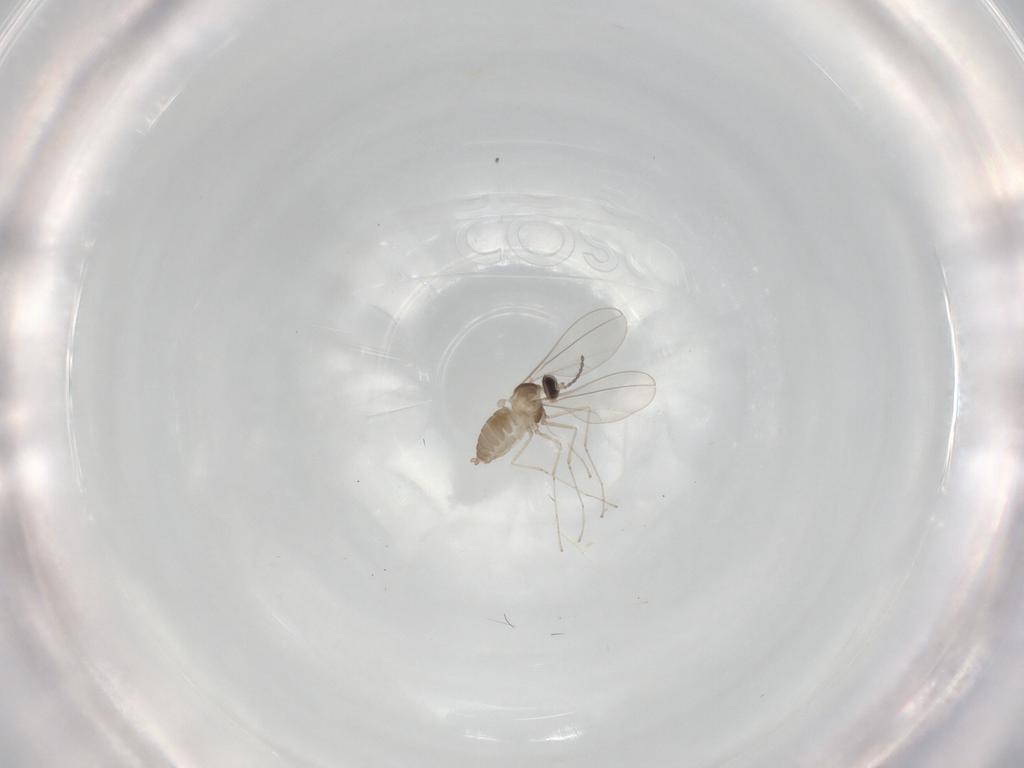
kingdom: Animalia
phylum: Arthropoda
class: Insecta
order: Diptera
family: Cecidomyiidae
